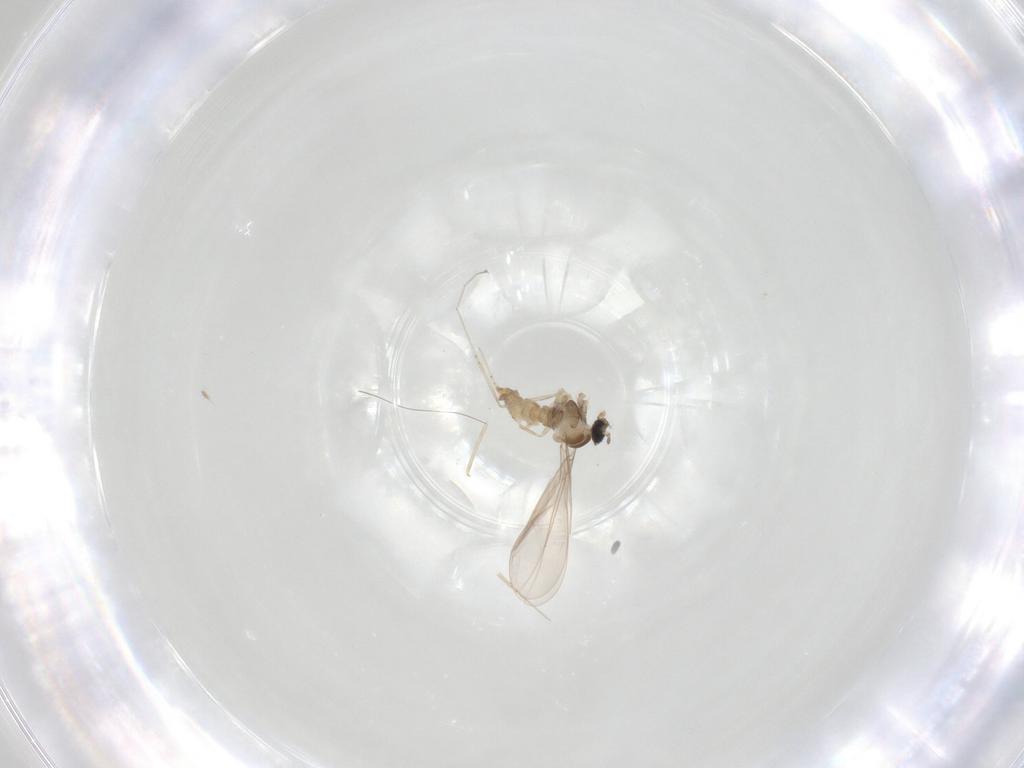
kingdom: Animalia
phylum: Arthropoda
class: Insecta
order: Diptera
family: Cecidomyiidae
